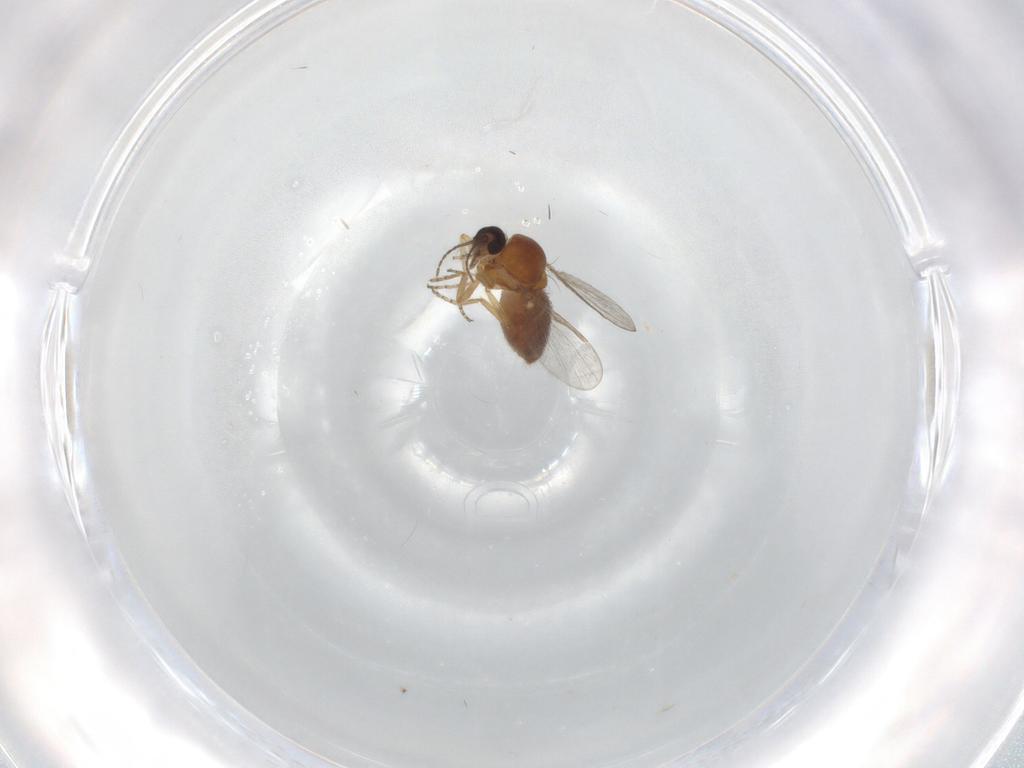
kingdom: Animalia
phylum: Arthropoda
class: Insecta
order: Diptera
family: Ceratopogonidae
